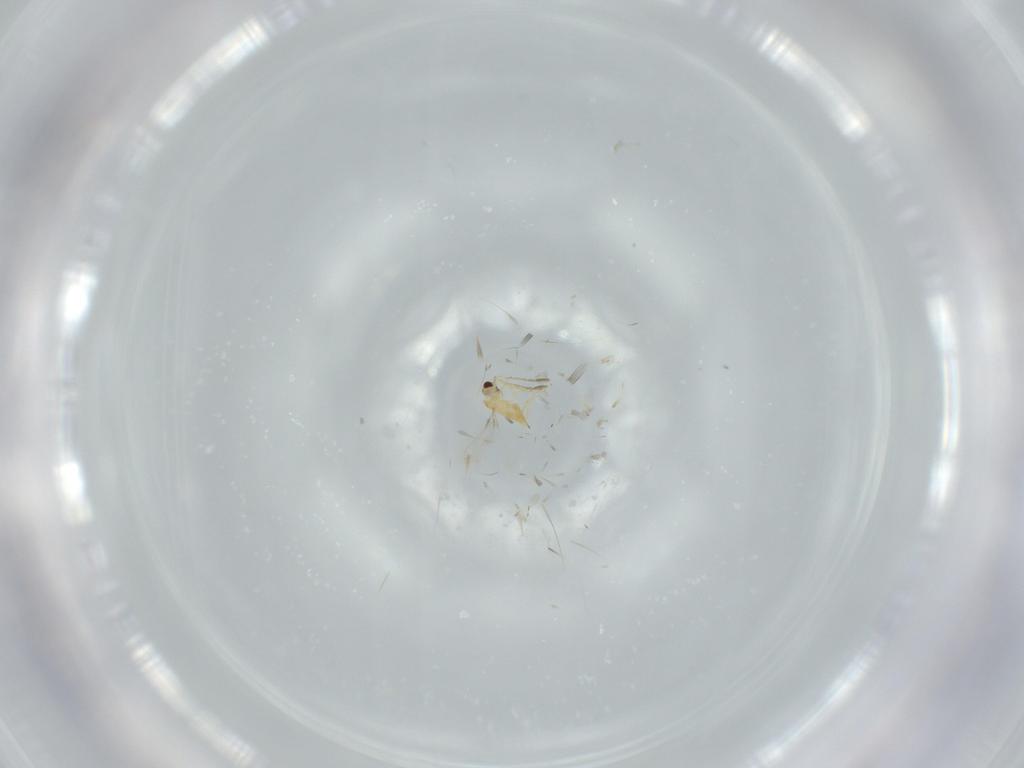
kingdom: Animalia
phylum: Arthropoda
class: Insecta
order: Hymenoptera
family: Mymaridae
